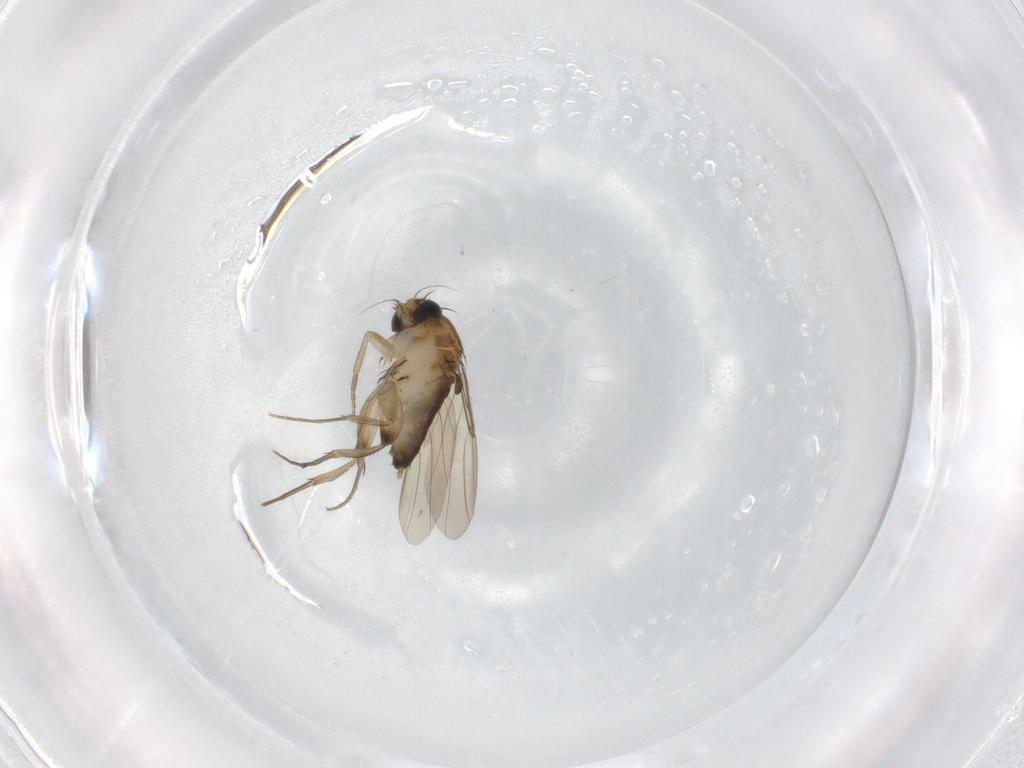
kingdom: Animalia
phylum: Arthropoda
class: Insecta
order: Diptera
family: Phoridae
